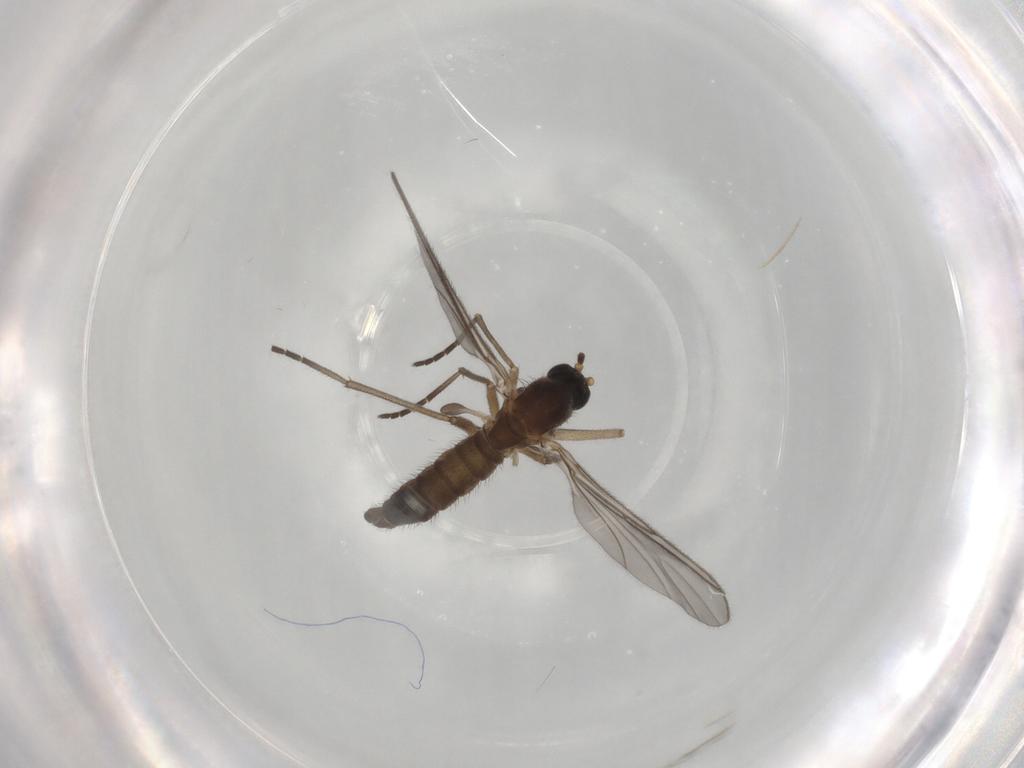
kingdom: Animalia
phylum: Arthropoda
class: Insecta
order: Diptera
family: Sciaridae
